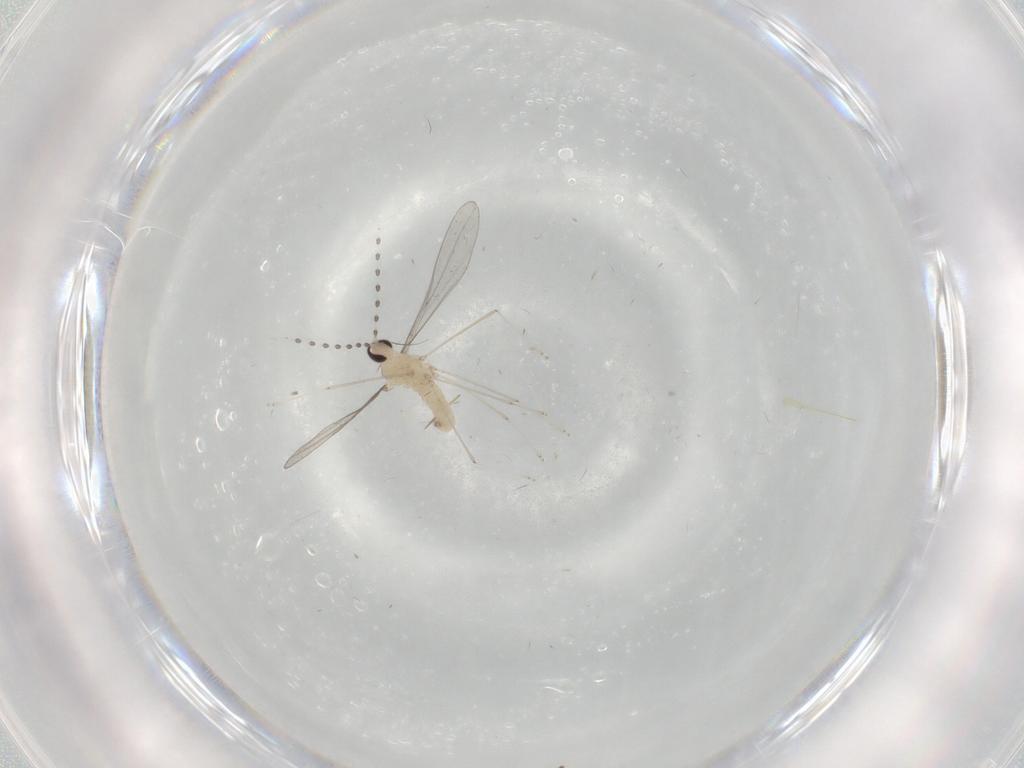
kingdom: Animalia
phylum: Arthropoda
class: Insecta
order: Diptera
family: Limoniidae
